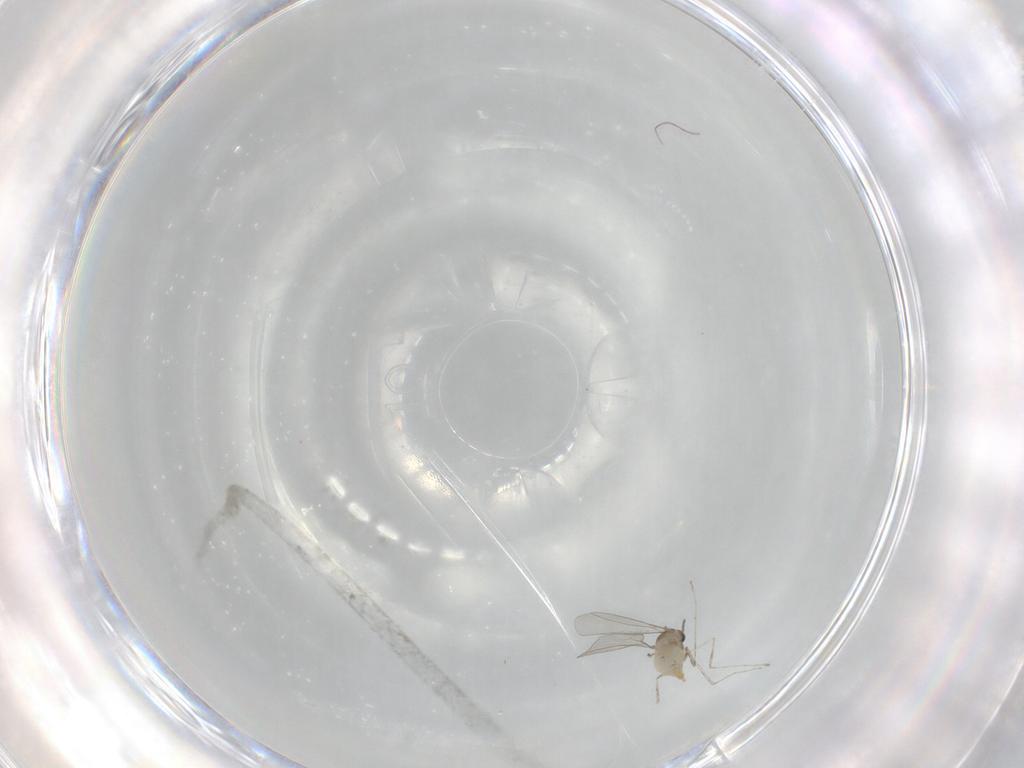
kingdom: Animalia
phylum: Arthropoda
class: Insecta
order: Diptera
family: Cecidomyiidae
